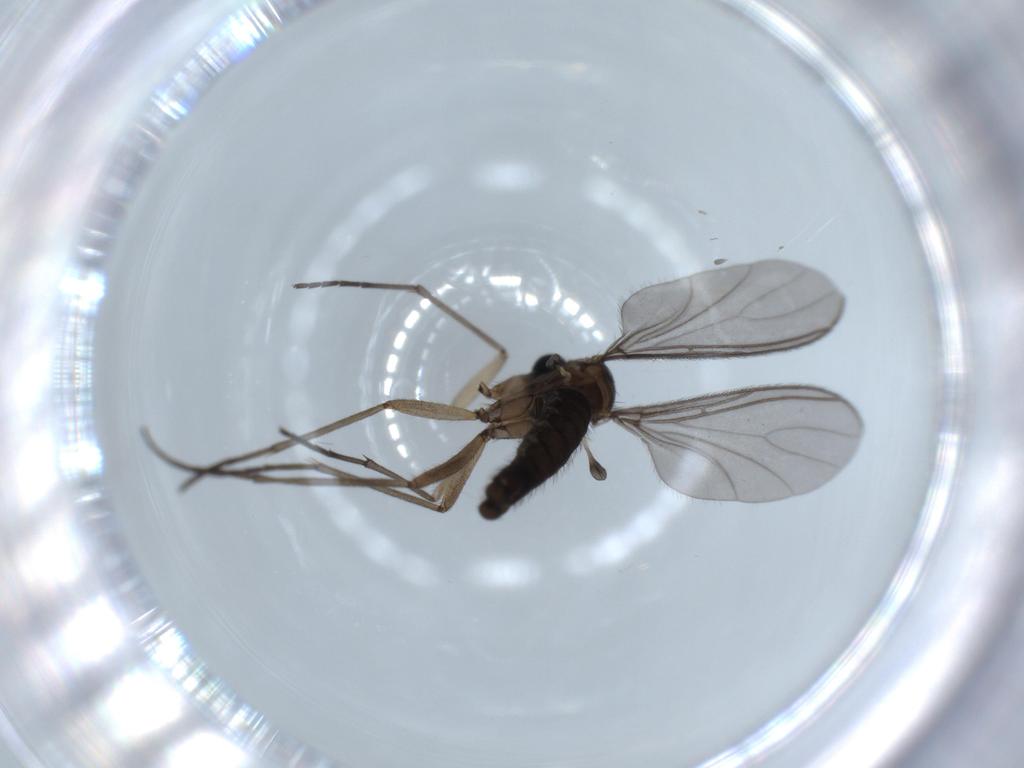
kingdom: Animalia
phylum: Arthropoda
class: Insecta
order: Diptera
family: Sciaridae
